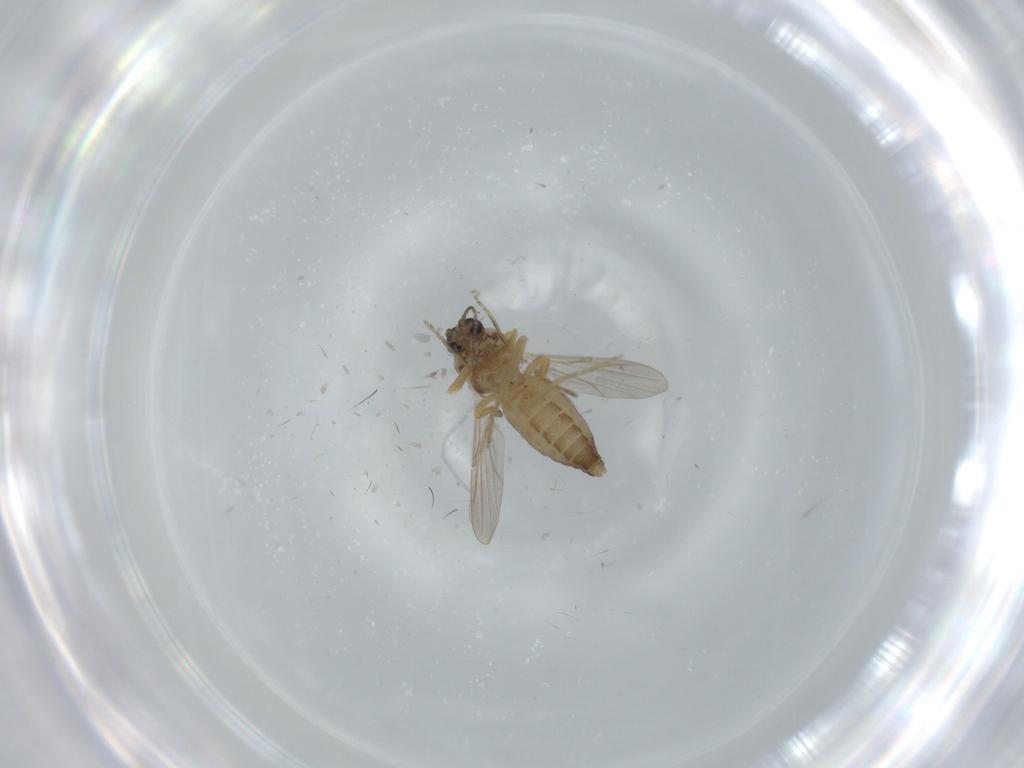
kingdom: Animalia
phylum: Arthropoda
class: Insecta
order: Diptera
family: Ceratopogonidae
